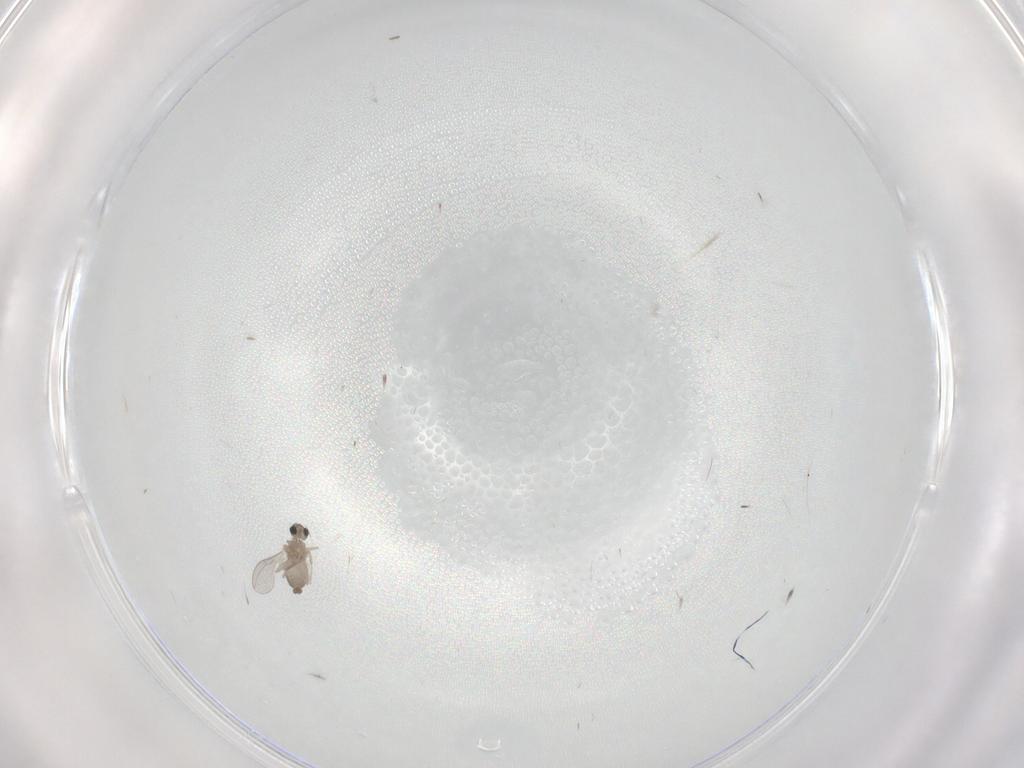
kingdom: Animalia
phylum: Arthropoda
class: Insecta
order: Diptera
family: Cecidomyiidae
